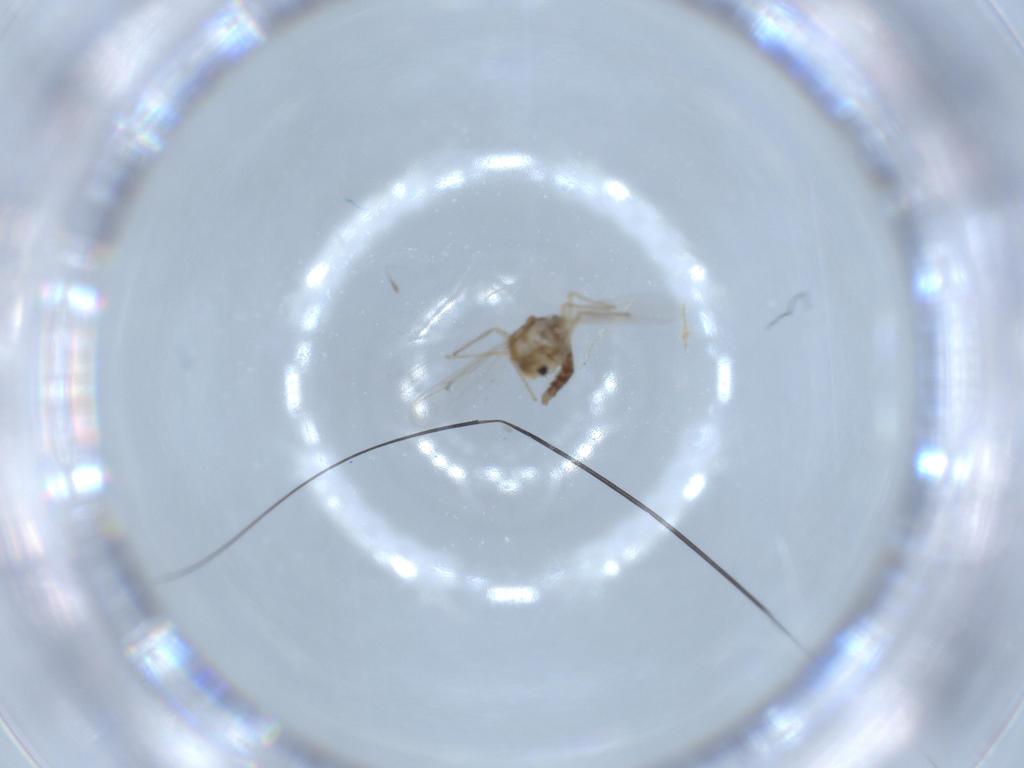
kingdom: Animalia
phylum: Arthropoda
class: Insecta
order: Diptera
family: Chironomidae
